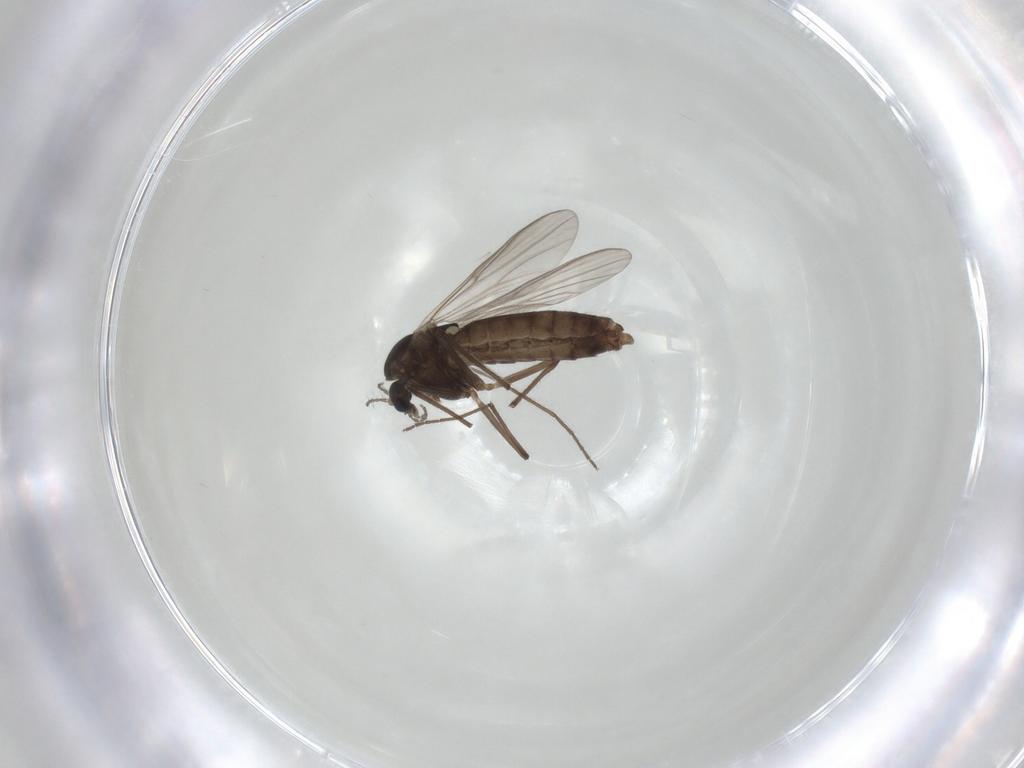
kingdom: Animalia
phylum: Arthropoda
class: Insecta
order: Diptera
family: Chironomidae
